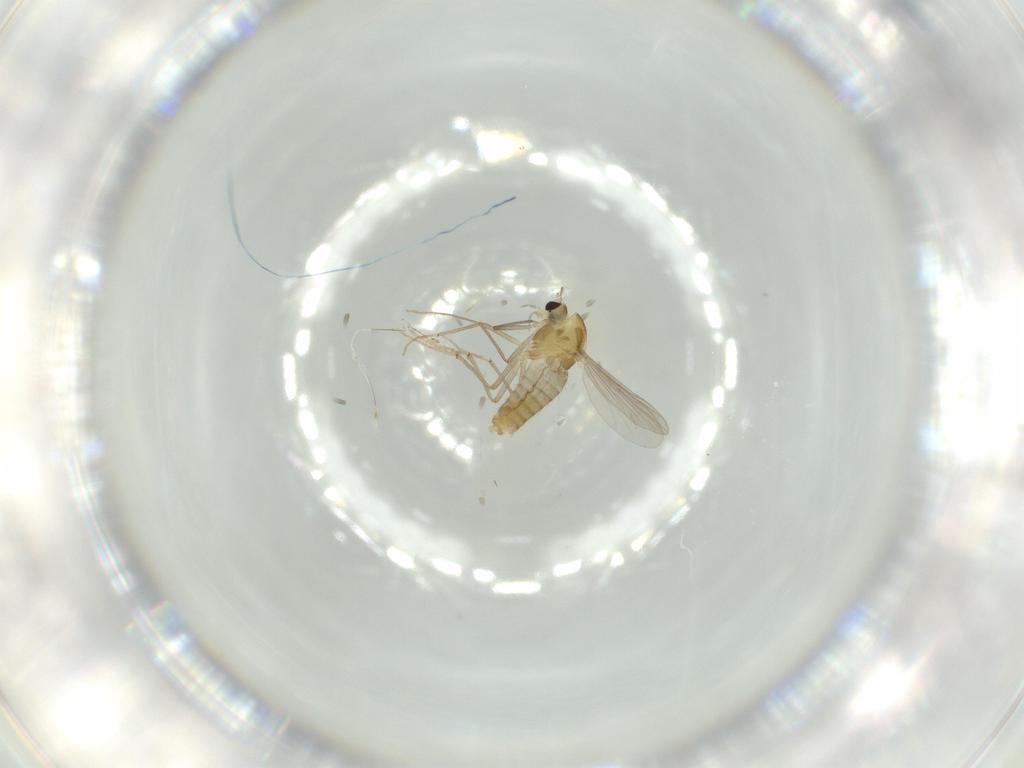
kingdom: Animalia
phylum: Arthropoda
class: Insecta
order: Diptera
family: Chironomidae
